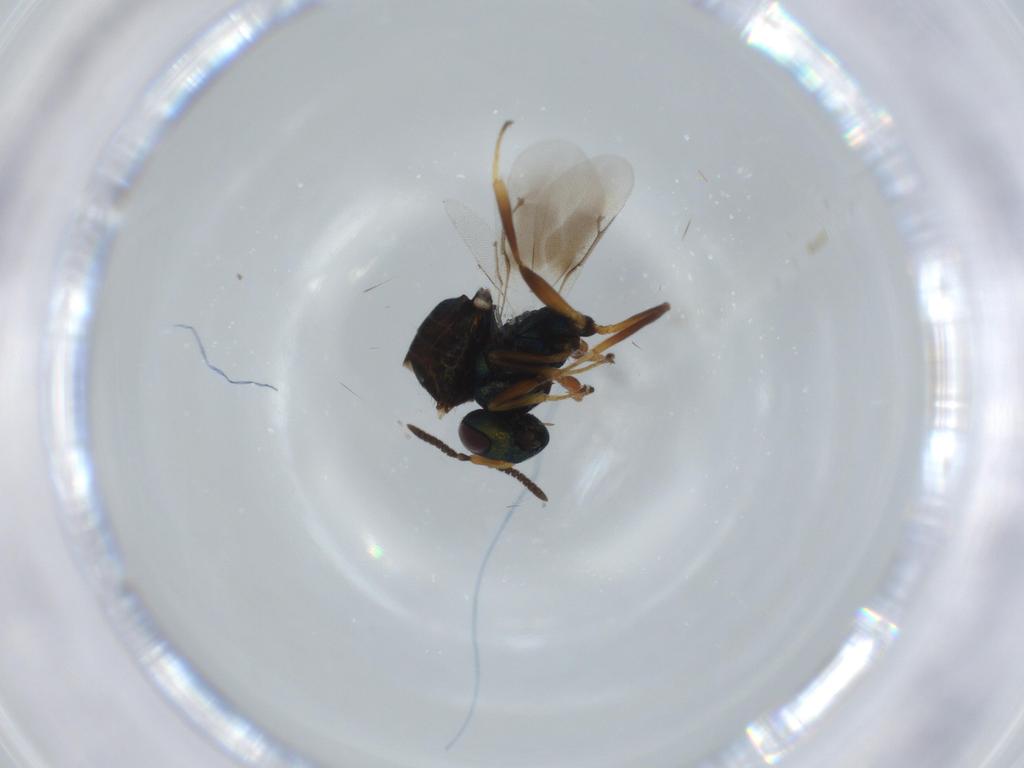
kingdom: Animalia
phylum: Arthropoda
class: Insecta
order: Hymenoptera
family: Pteromalidae
